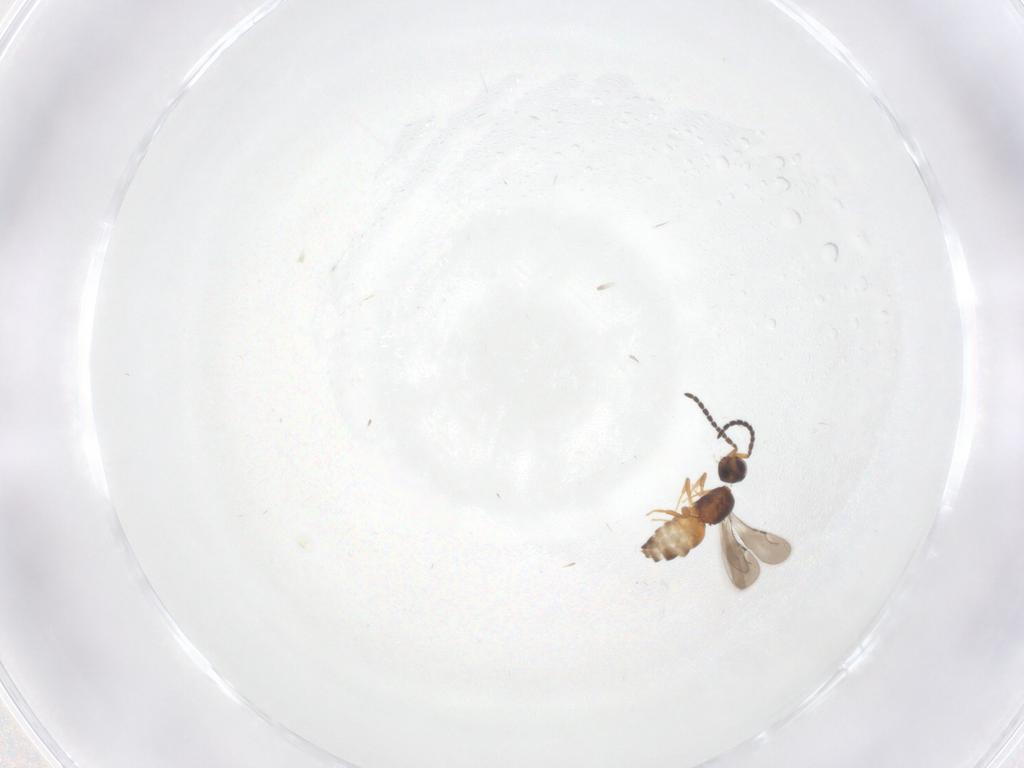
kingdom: Animalia
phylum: Arthropoda
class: Insecta
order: Hymenoptera
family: Ceraphronidae
